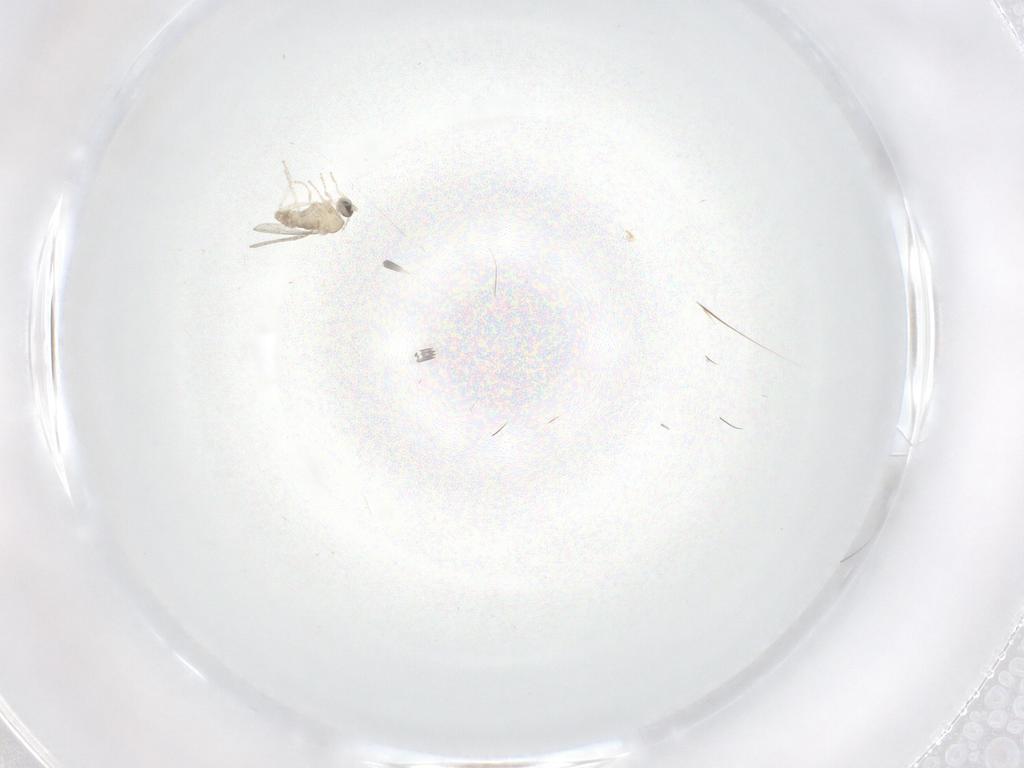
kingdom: Animalia
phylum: Arthropoda
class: Insecta
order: Diptera
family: Cecidomyiidae
